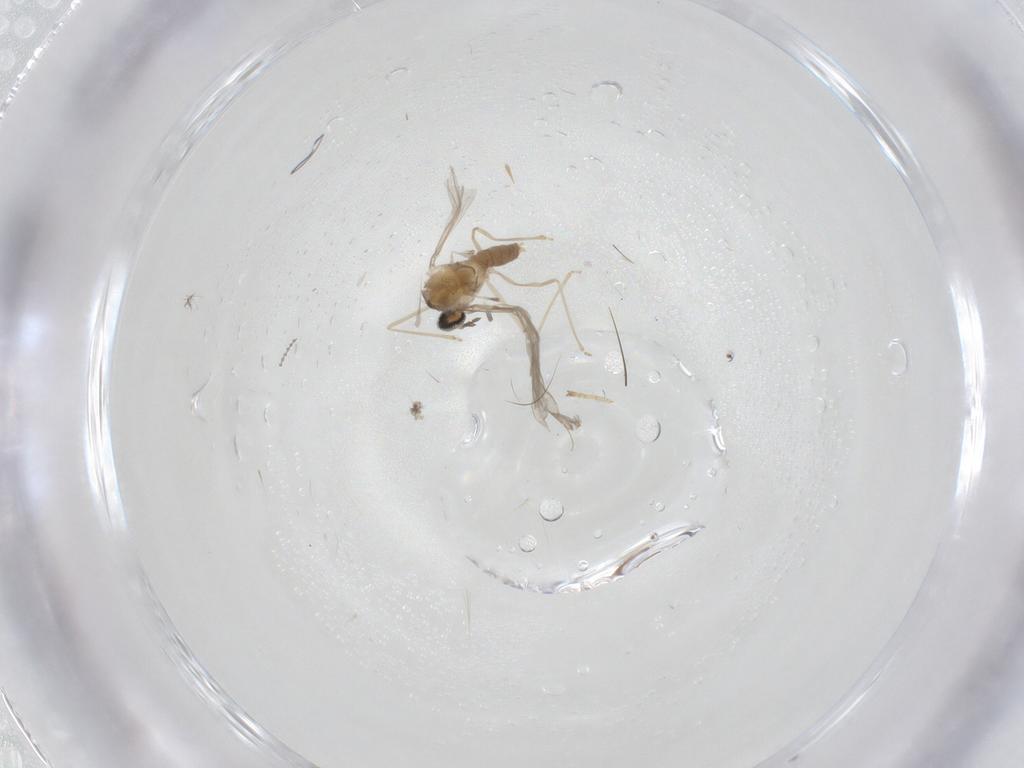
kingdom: Animalia
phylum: Arthropoda
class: Insecta
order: Diptera
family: Cecidomyiidae
